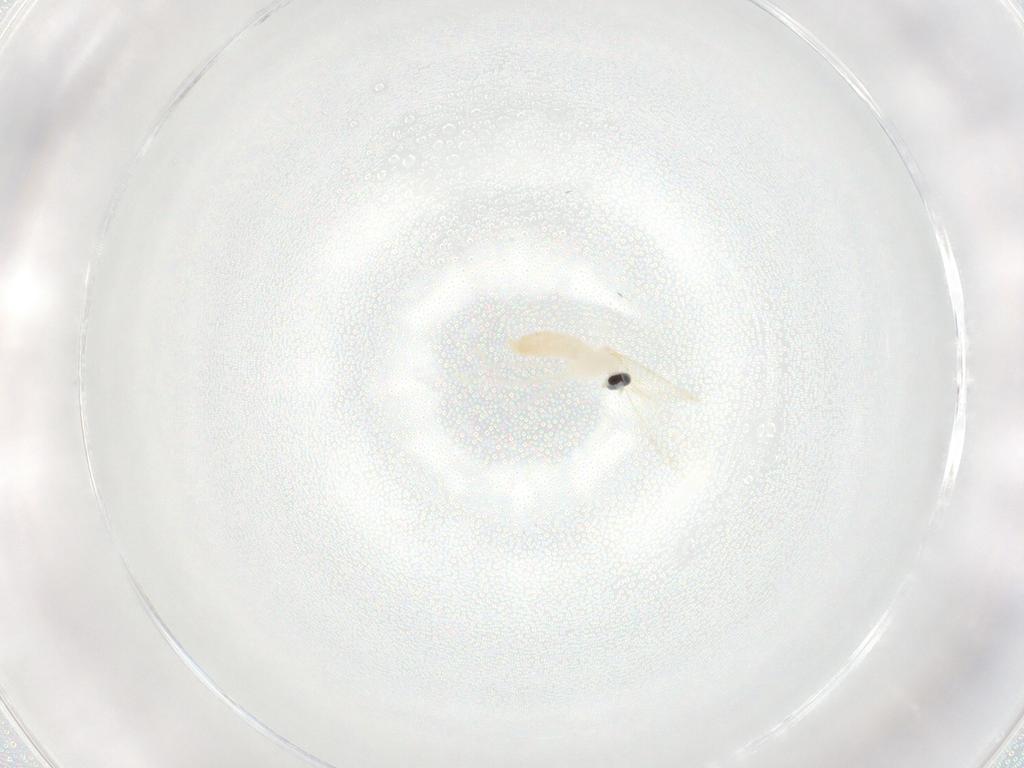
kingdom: Animalia
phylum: Arthropoda
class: Insecta
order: Diptera
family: Cecidomyiidae
